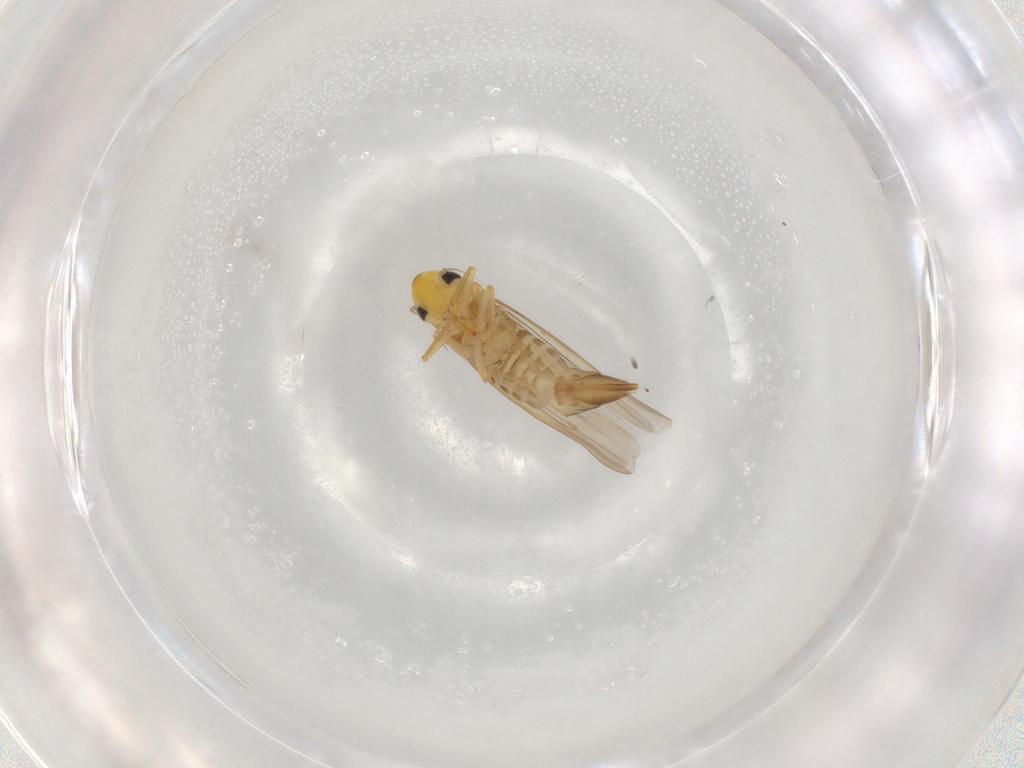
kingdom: Animalia
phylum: Arthropoda
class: Insecta
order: Hemiptera
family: Cicadellidae
